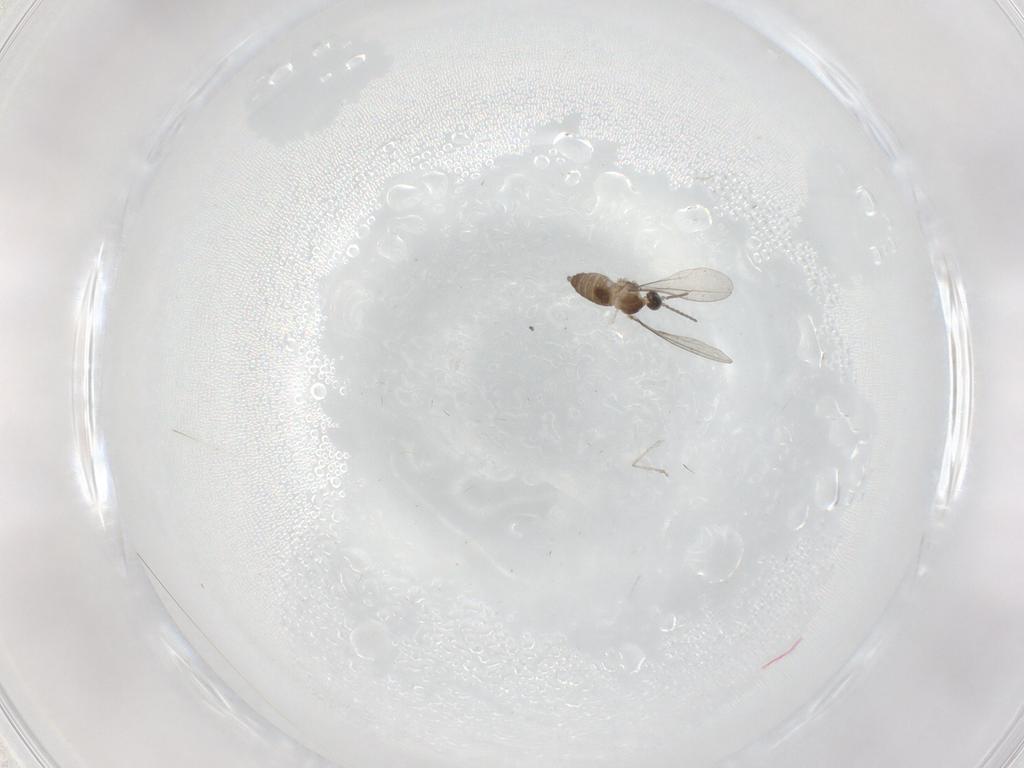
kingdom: Animalia
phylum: Arthropoda
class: Insecta
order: Diptera
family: Cecidomyiidae
